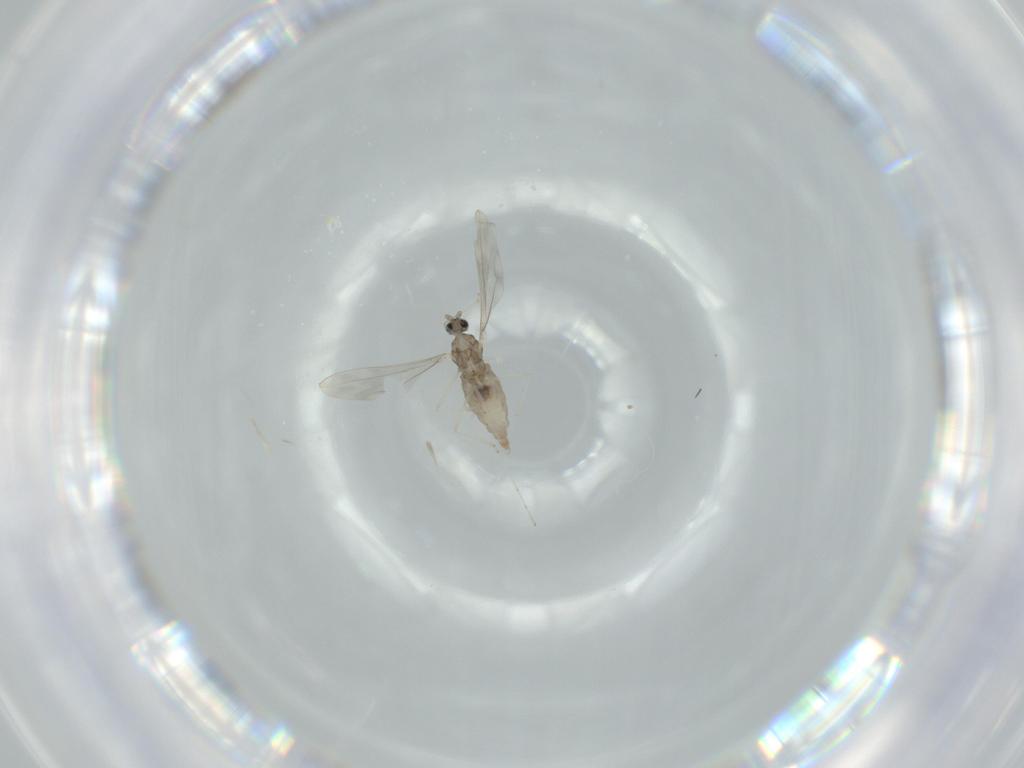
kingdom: Animalia
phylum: Arthropoda
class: Insecta
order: Diptera
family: Cecidomyiidae
